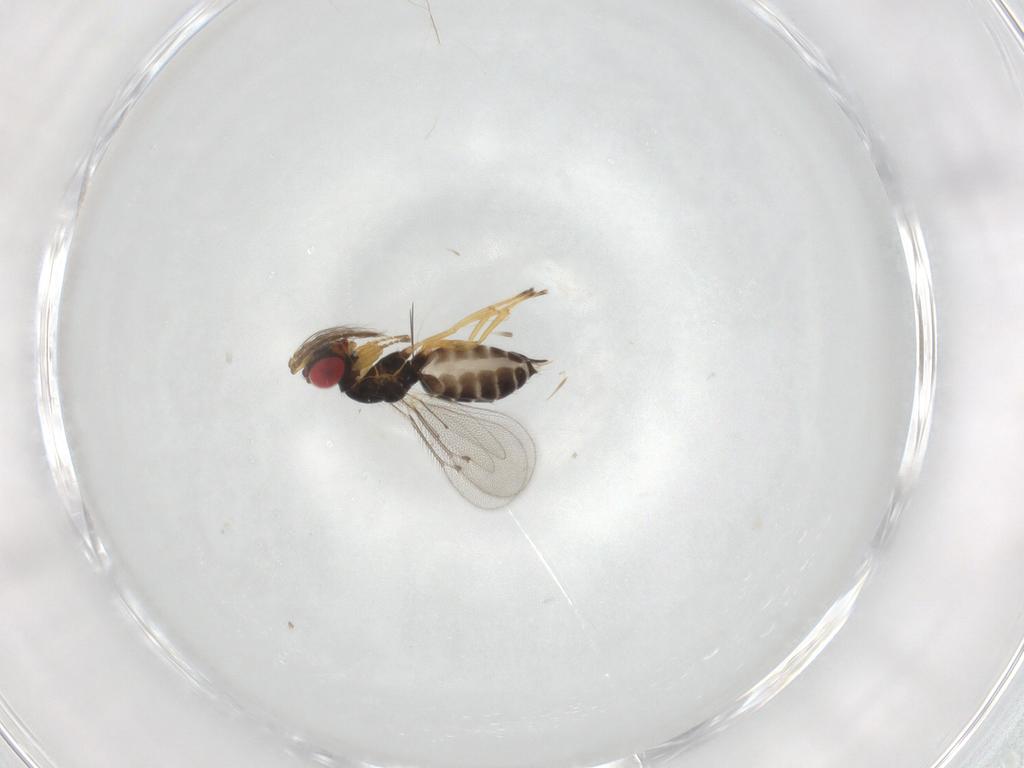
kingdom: Animalia
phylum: Arthropoda
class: Insecta
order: Hymenoptera
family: Eulophidae
